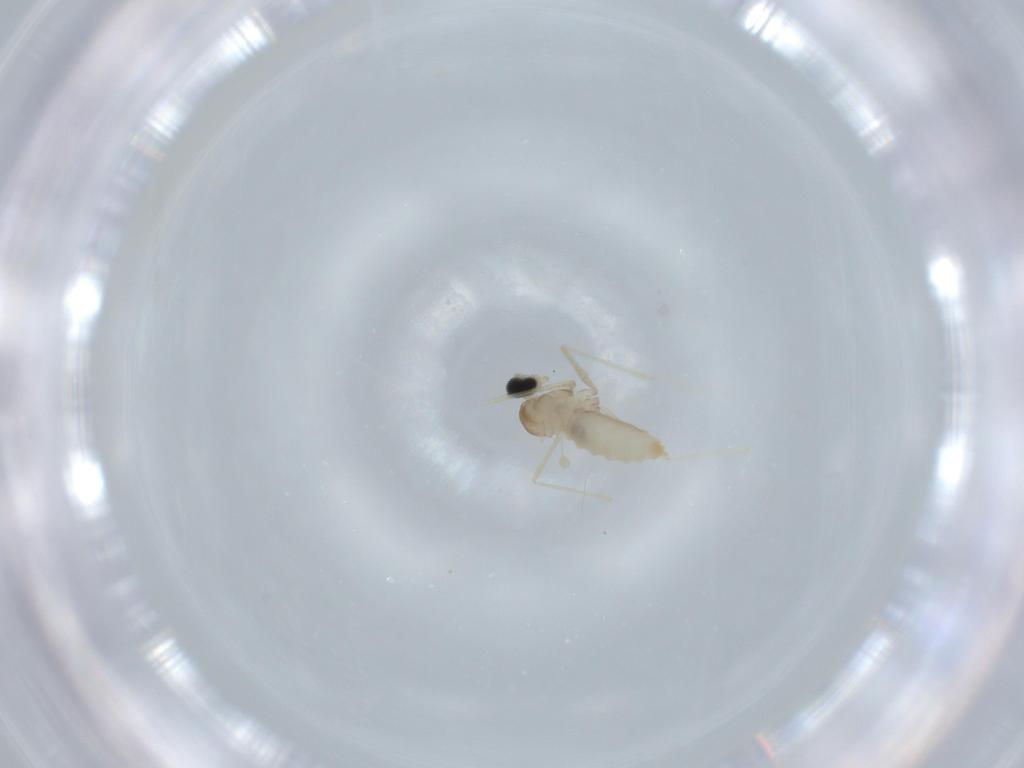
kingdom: Animalia
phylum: Arthropoda
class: Insecta
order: Diptera
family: Cecidomyiidae
